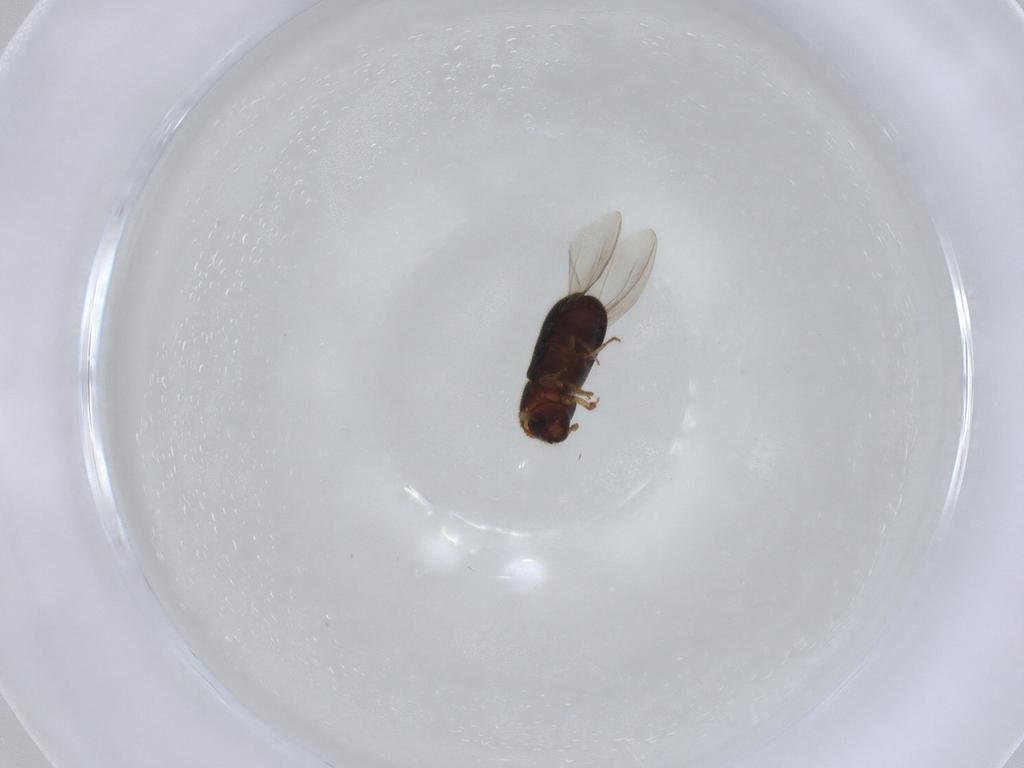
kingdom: Animalia
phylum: Arthropoda
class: Insecta
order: Coleoptera
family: Curculionidae
